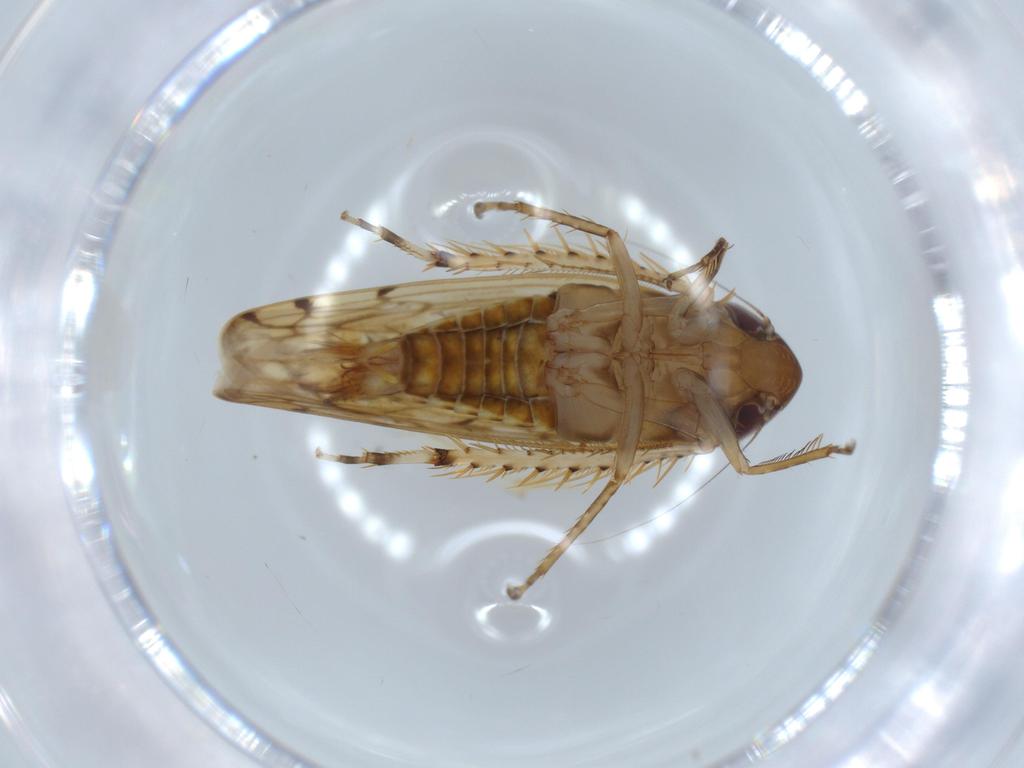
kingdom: Animalia
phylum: Arthropoda
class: Insecta
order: Hemiptera
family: Cicadellidae
